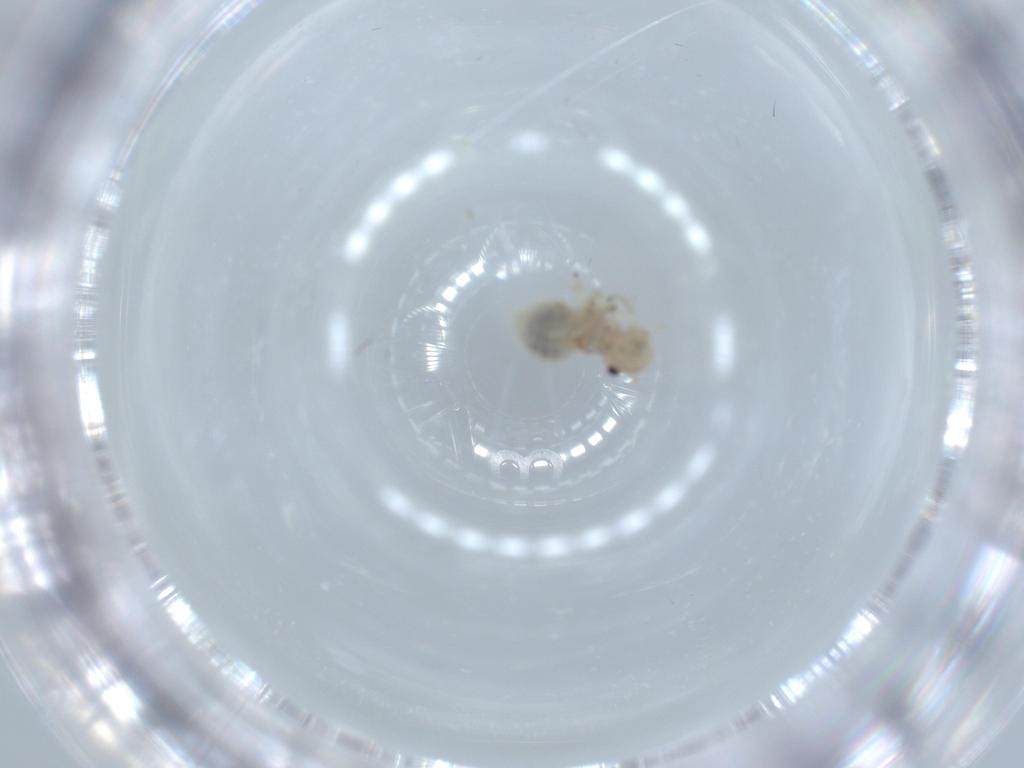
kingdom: Animalia
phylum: Arthropoda
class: Insecta
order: Psocodea
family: Amphipsocidae
